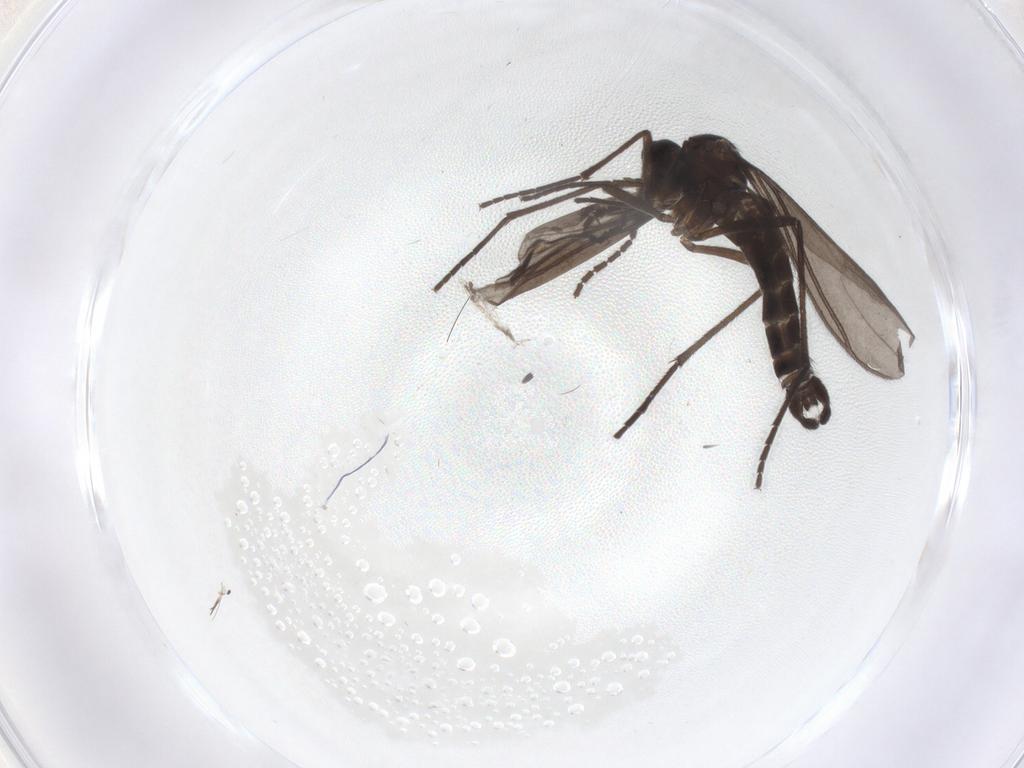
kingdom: Animalia
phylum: Arthropoda
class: Insecta
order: Diptera
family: Sciaridae
